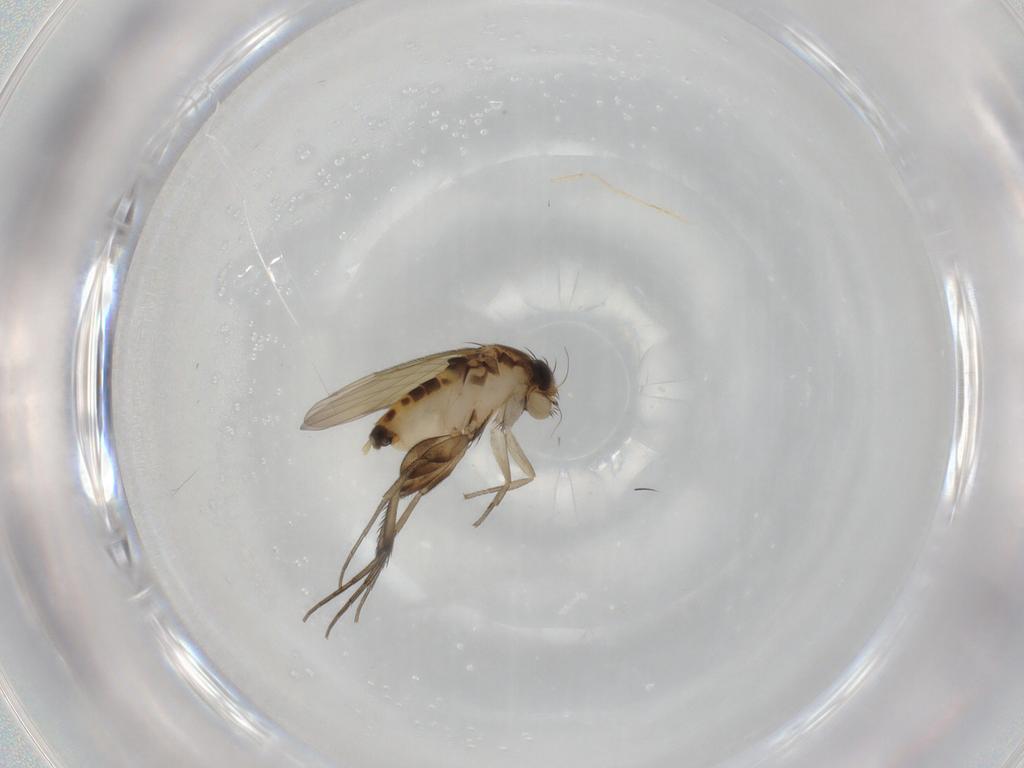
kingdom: Animalia
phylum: Arthropoda
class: Insecta
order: Diptera
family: Phoridae
